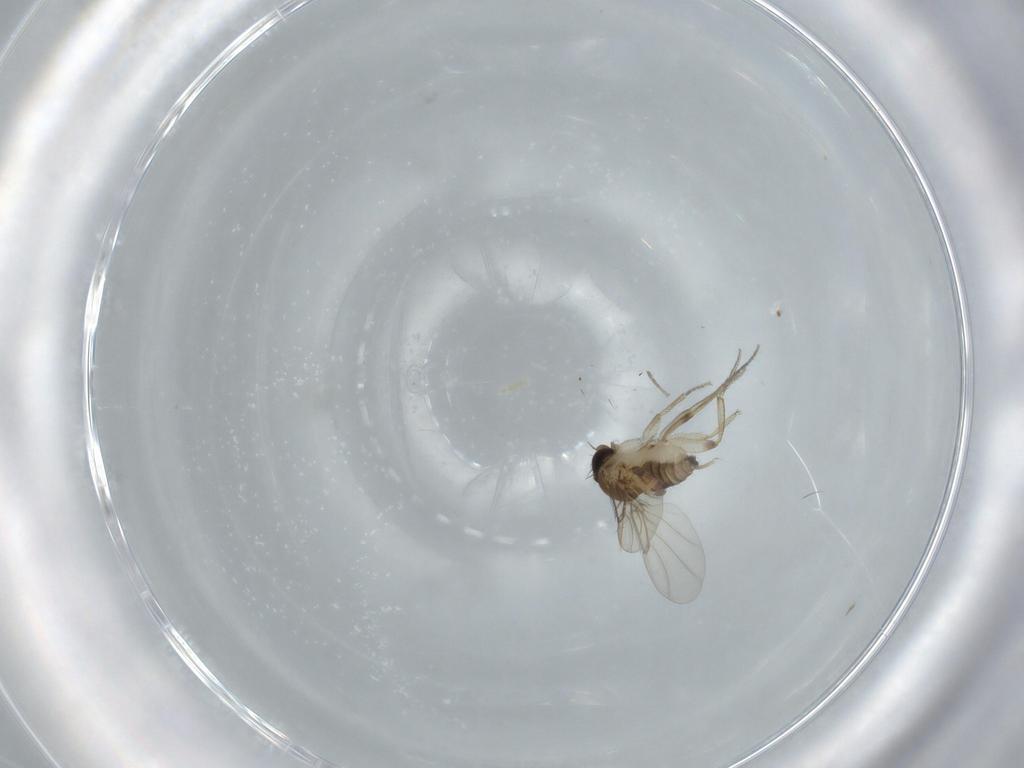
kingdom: Animalia
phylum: Arthropoda
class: Insecta
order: Diptera
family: Phoridae
